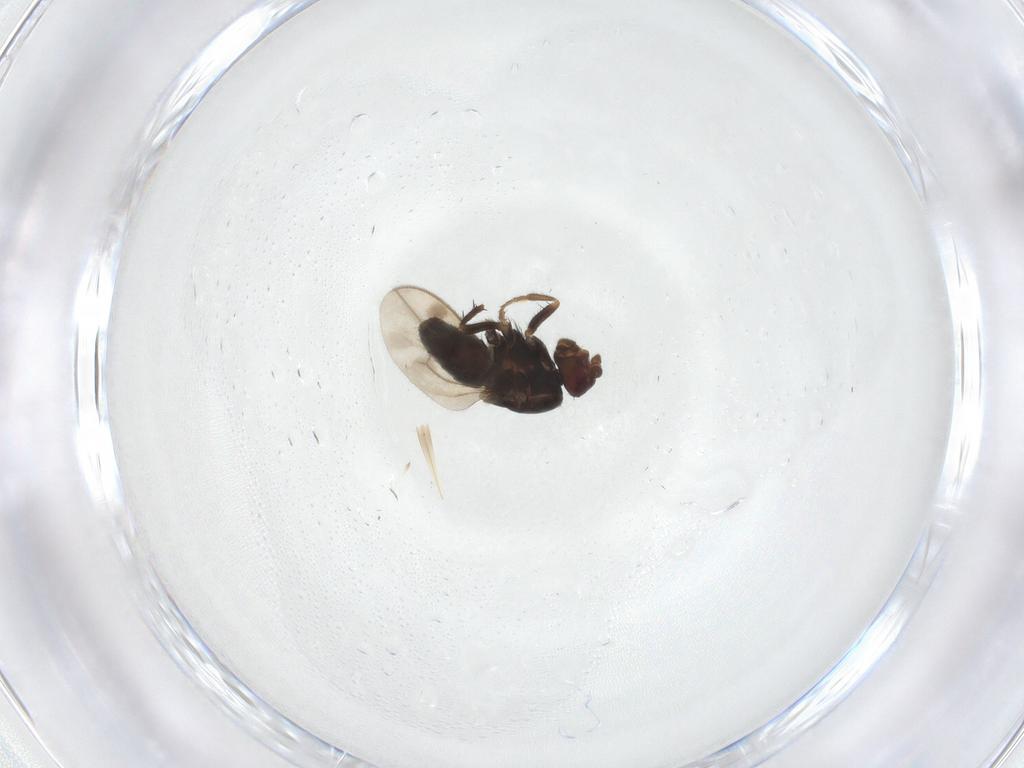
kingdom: Animalia
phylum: Arthropoda
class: Insecta
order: Diptera
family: Sphaeroceridae
